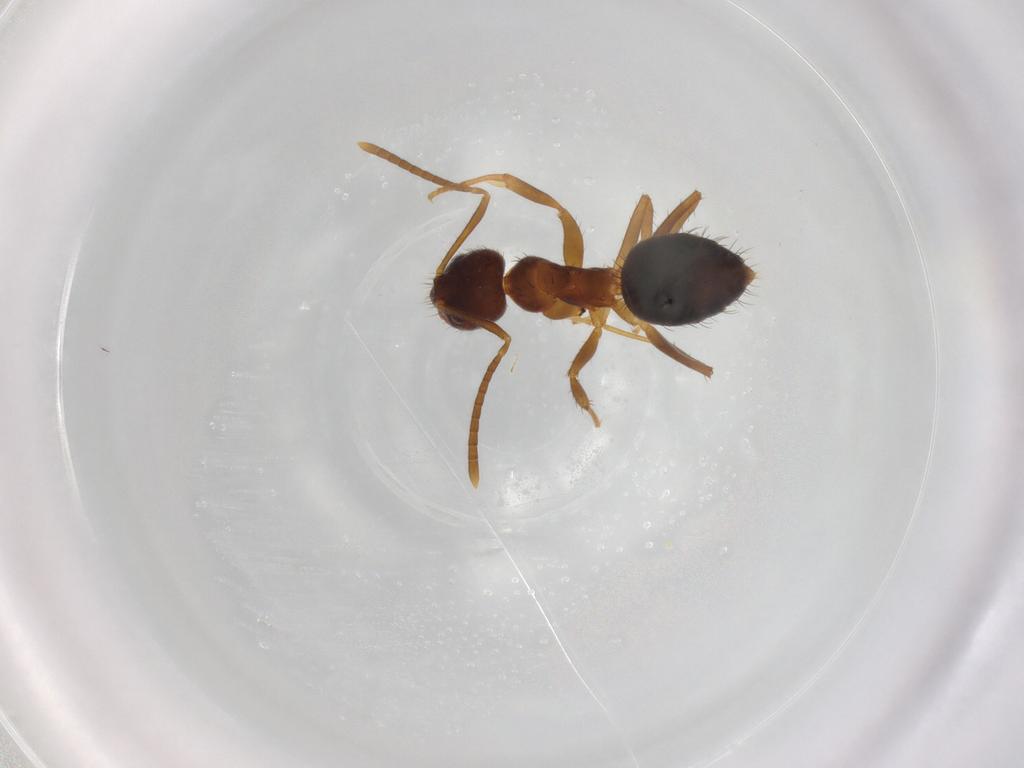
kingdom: Animalia
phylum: Arthropoda
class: Insecta
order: Hymenoptera
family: Formicidae
